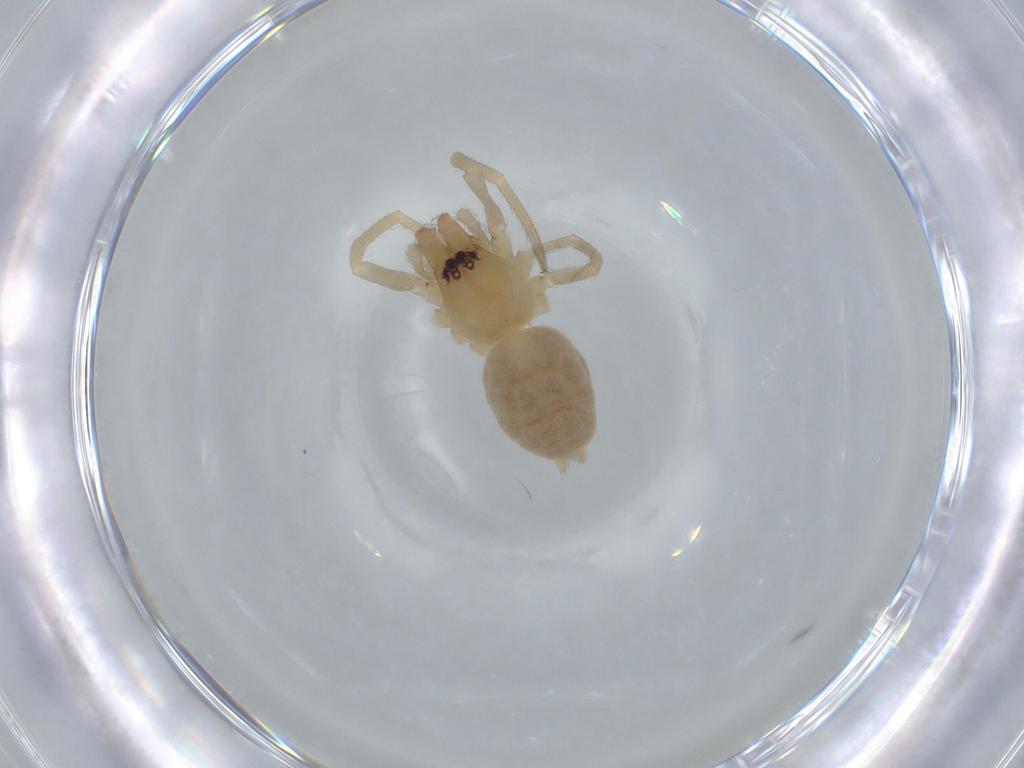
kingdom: Animalia
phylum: Arthropoda
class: Arachnida
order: Araneae
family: Cheiracanthiidae
